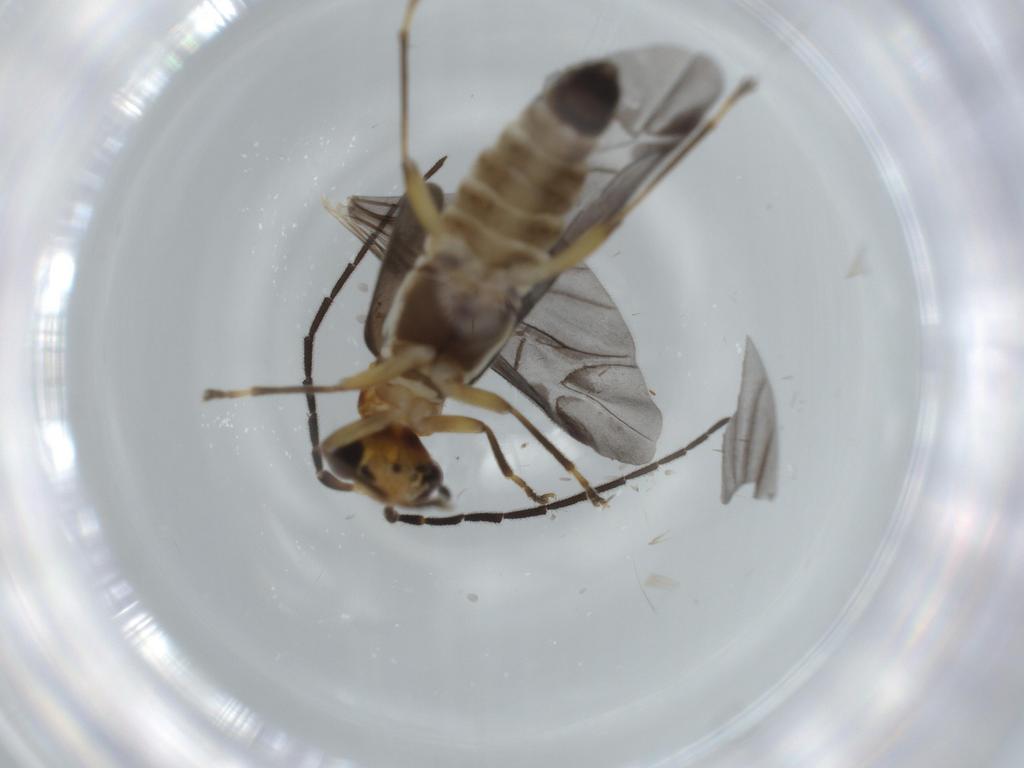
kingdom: Animalia
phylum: Arthropoda
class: Insecta
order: Coleoptera
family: Cantharidae
